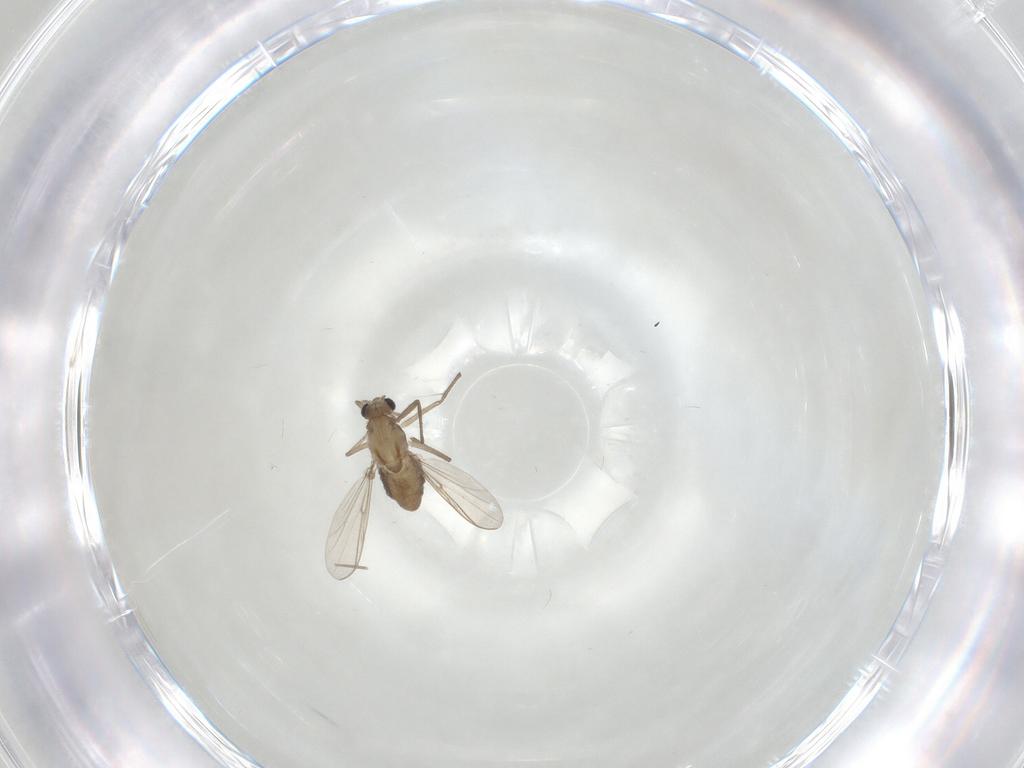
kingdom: Animalia
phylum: Arthropoda
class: Insecta
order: Diptera
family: Chironomidae
